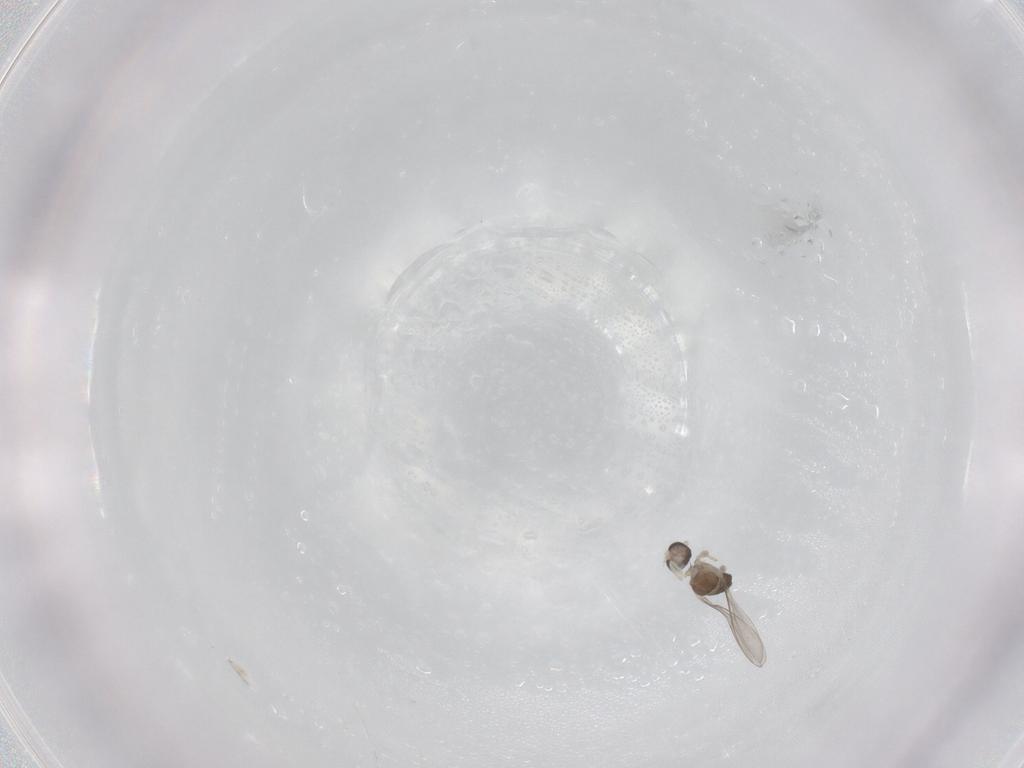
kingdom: Animalia
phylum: Arthropoda
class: Insecta
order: Diptera
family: Cecidomyiidae
